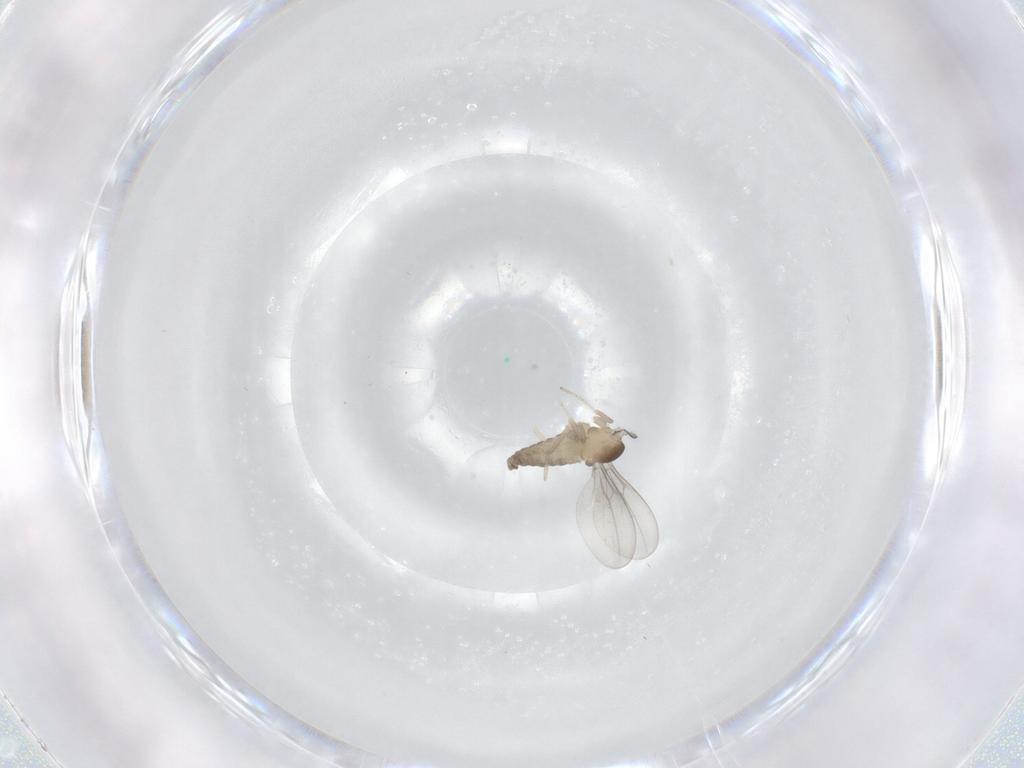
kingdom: Animalia
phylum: Arthropoda
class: Insecta
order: Diptera
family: Cecidomyiidae
